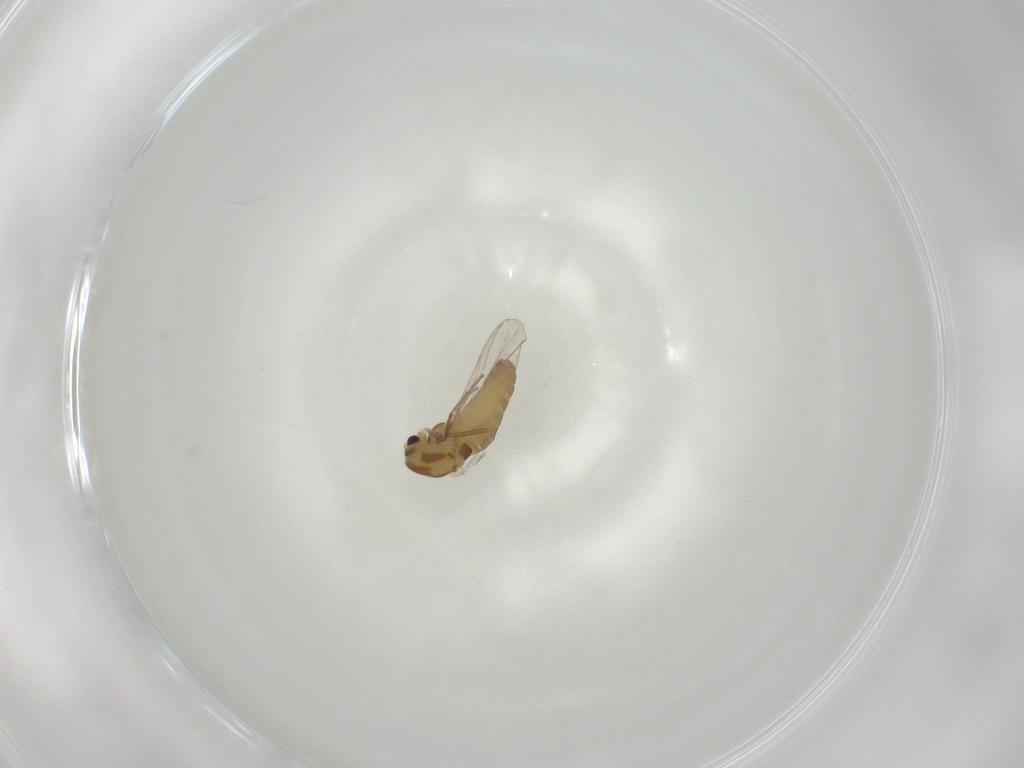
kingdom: Animalia
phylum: Arthropoda
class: Insecta
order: Diptera
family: Chironomidae
